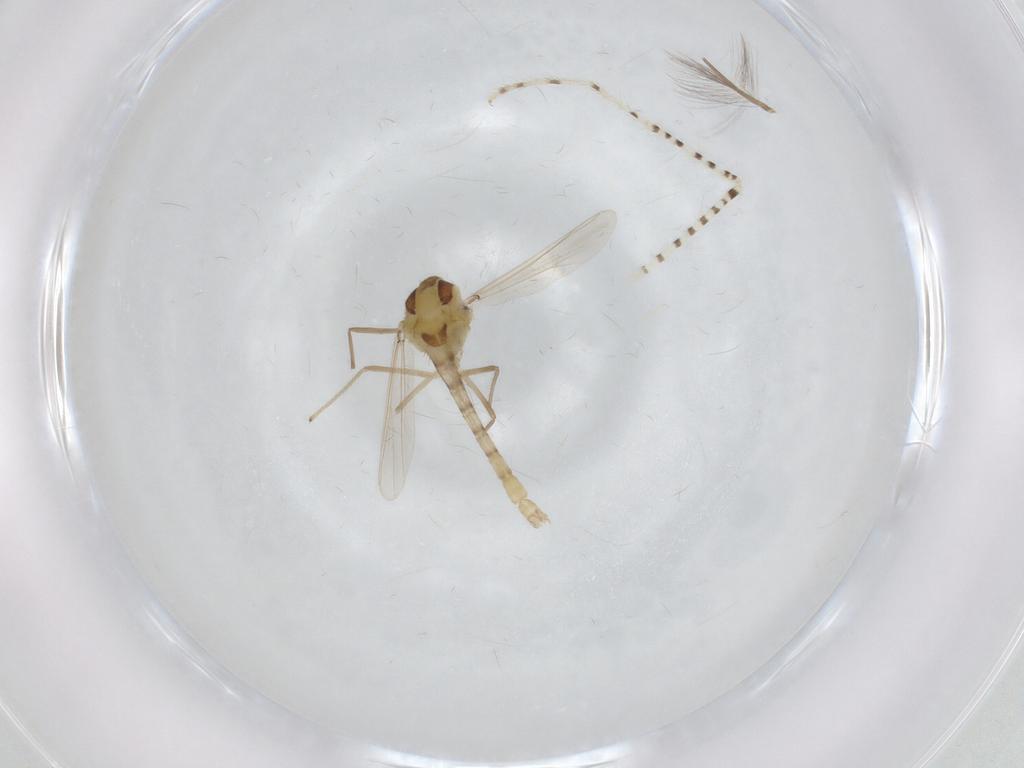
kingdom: Animalia
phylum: Arthropoda
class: Insecta
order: Diptera
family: Chironomidae
